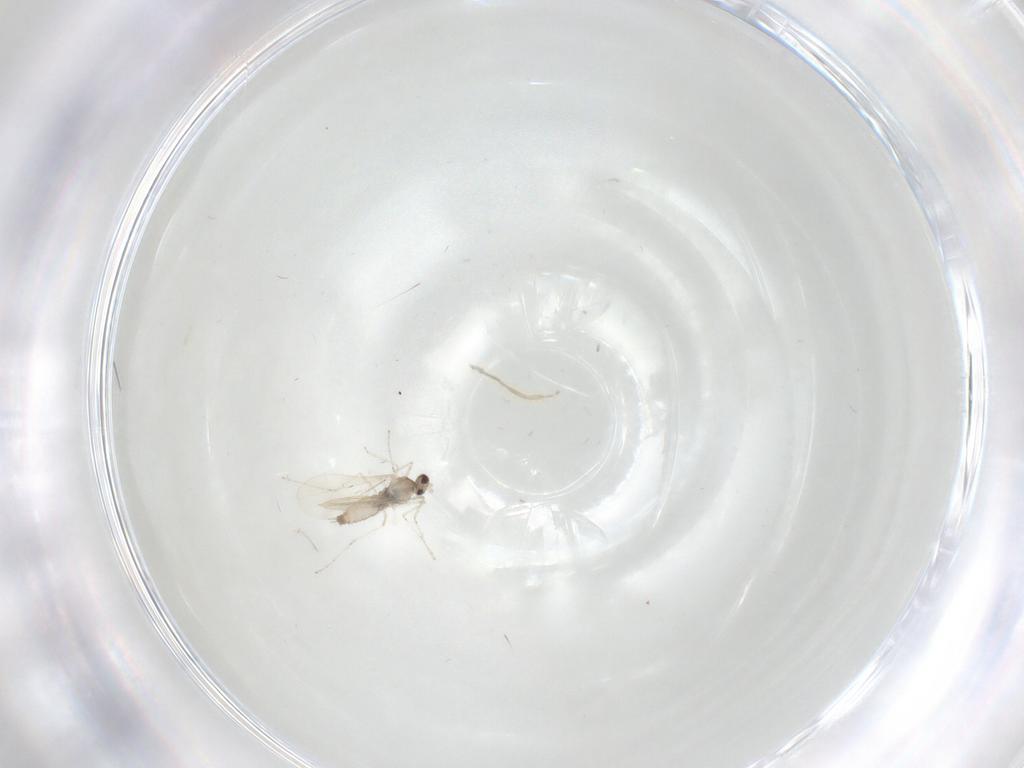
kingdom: Animalia
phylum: Arthropoda
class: Insecta
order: Diptera
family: Cecidomyiidae
